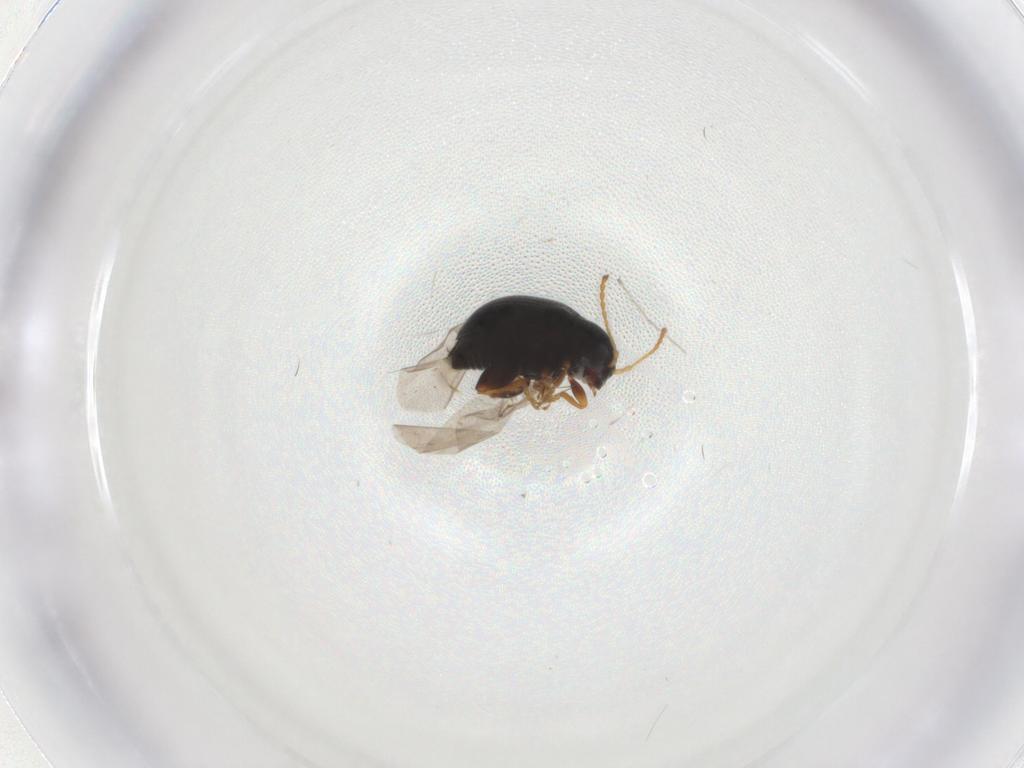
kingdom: Animalia
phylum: Arthropoda
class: Insecta
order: Coleoptera
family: Chrysomelidae
